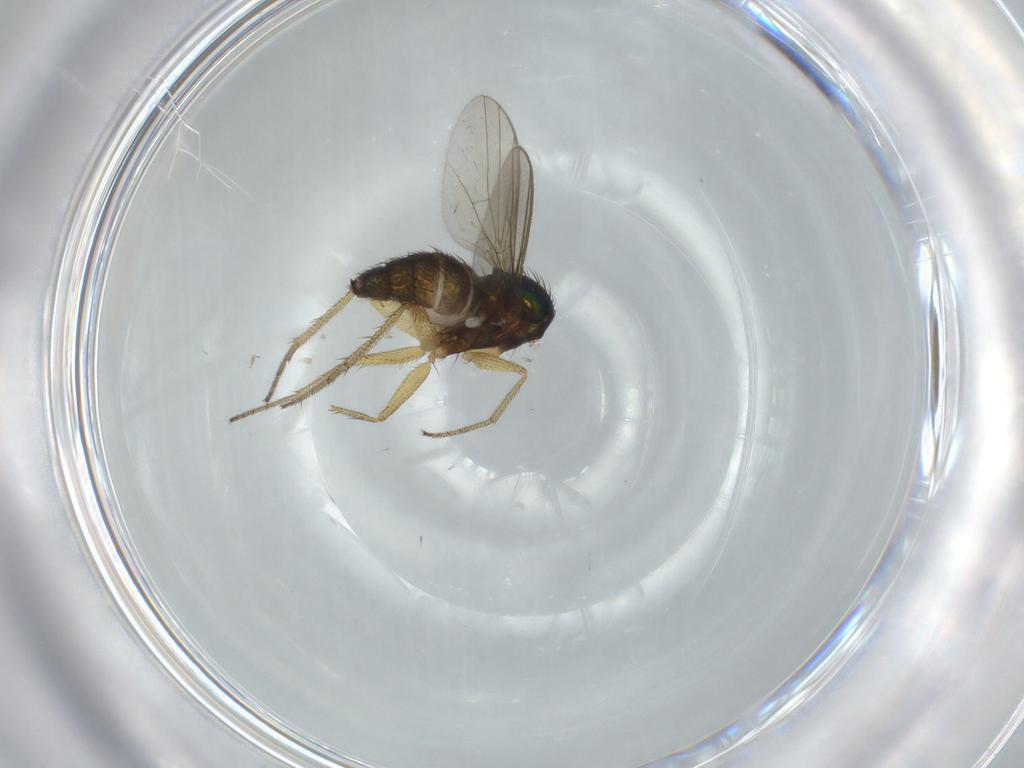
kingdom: Animalia
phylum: Arthropoda
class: Insecta
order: Diptera
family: Dolichopodidae
